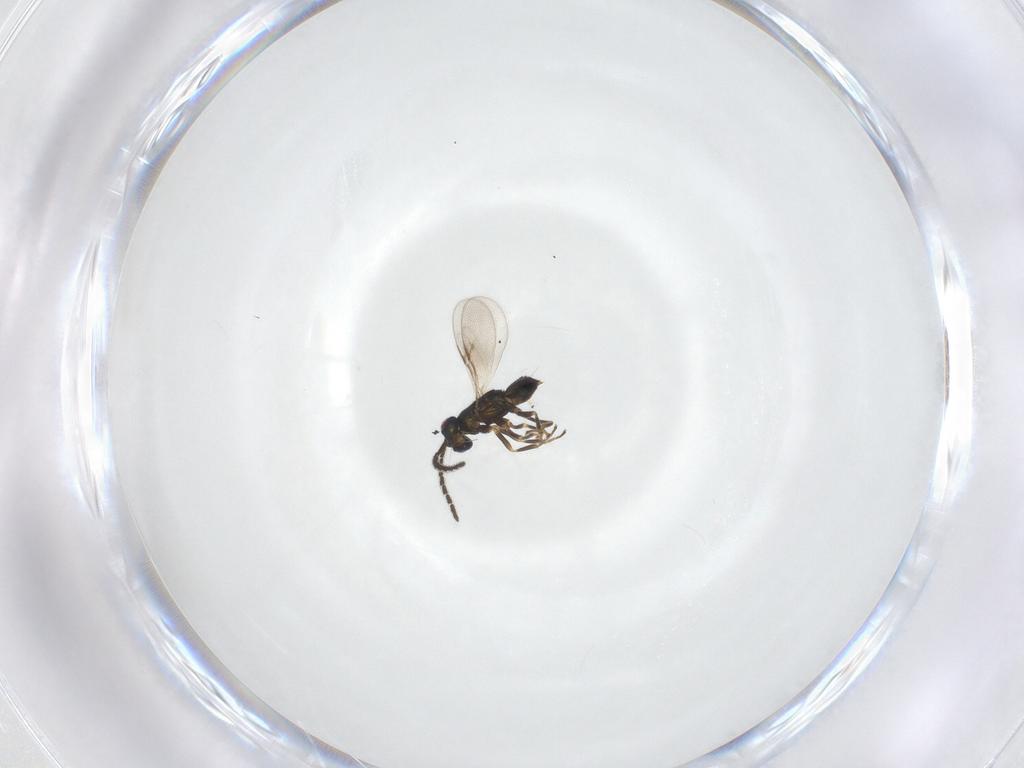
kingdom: Animalia
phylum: Arthropoda
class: Insecta
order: Hymenoptera
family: Encyrtidae
